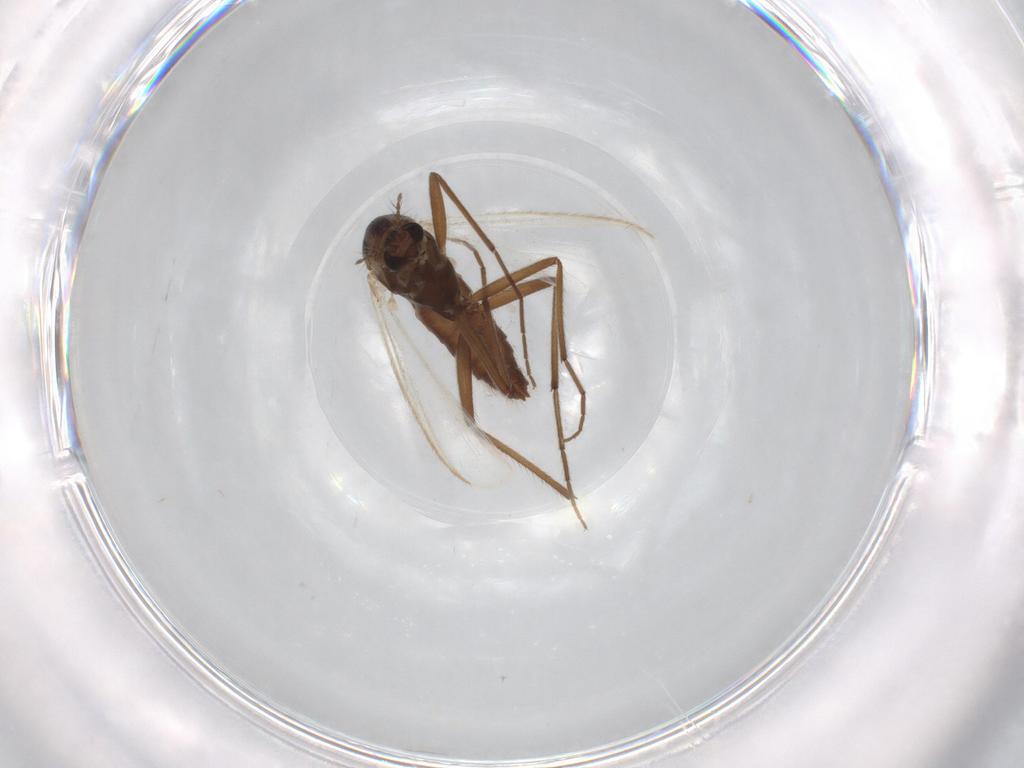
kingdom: Animalia
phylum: Arthropoda
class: Insecta
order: Diptera
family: Chironomidae
